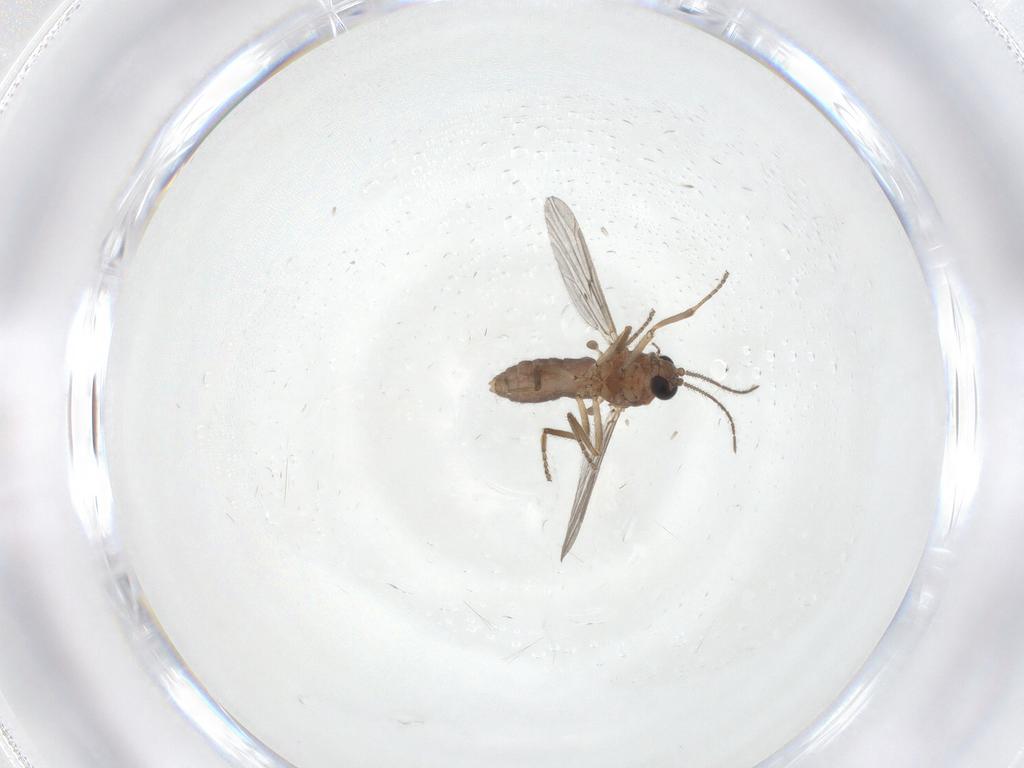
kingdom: Animalia
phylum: Arthropoda
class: Insecta
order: Diptera
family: Ceratopogonidae
